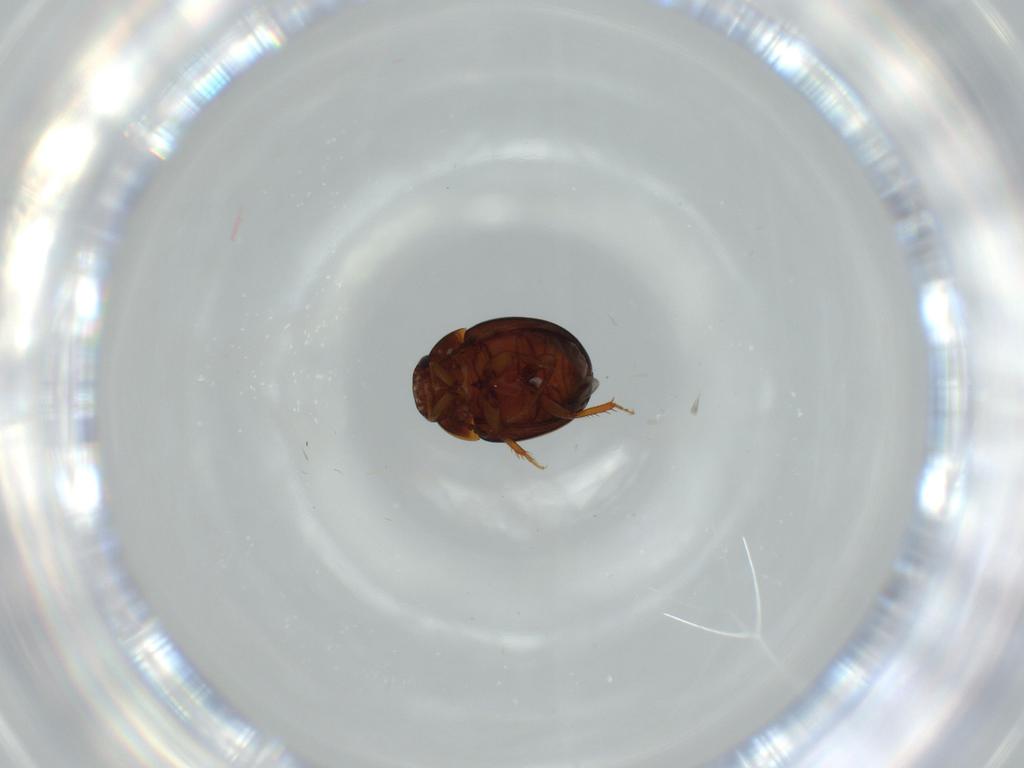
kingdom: Animalia
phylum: Arthropoda
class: Insecta
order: Coleoptera
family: Leiodidae
